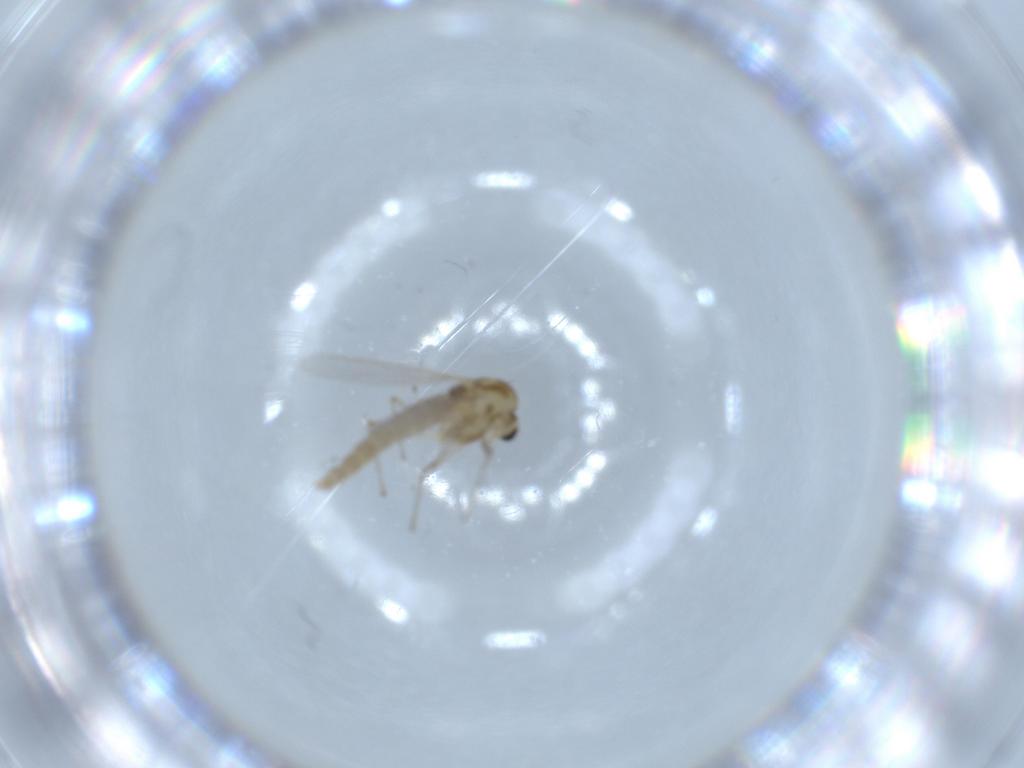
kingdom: Animalia
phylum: Arthropoda
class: Insecta
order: Diptera
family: Chironomidae
